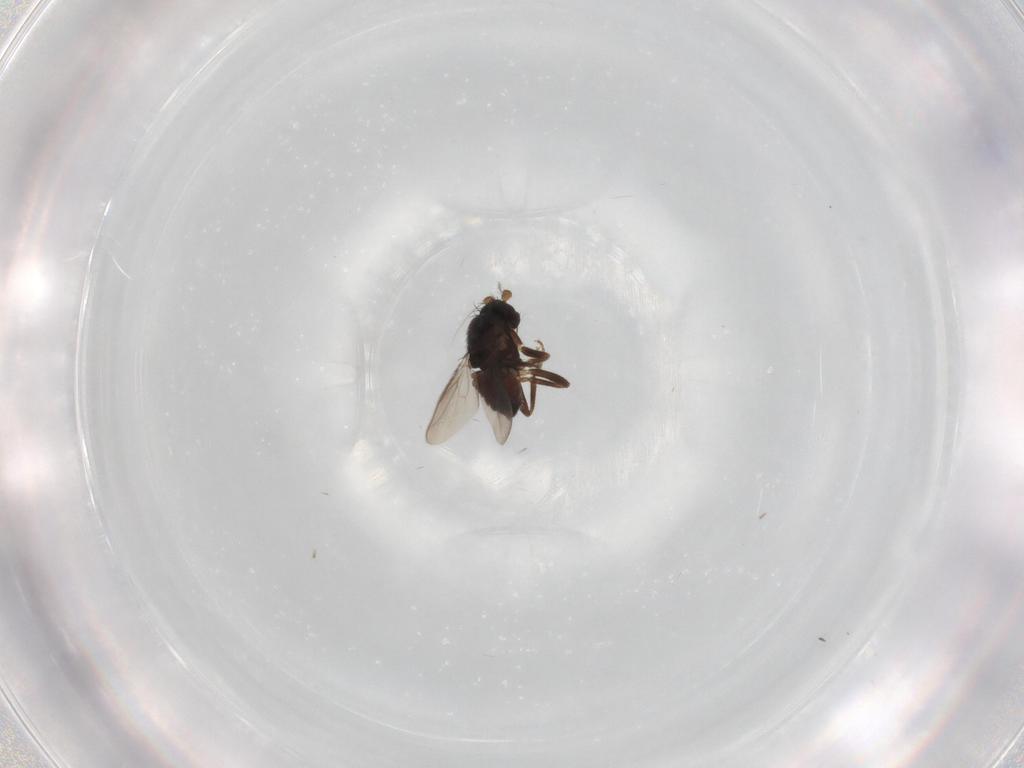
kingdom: Animalia
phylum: Arthropoda
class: Insecta
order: Diptera
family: Sphaeroceridae
